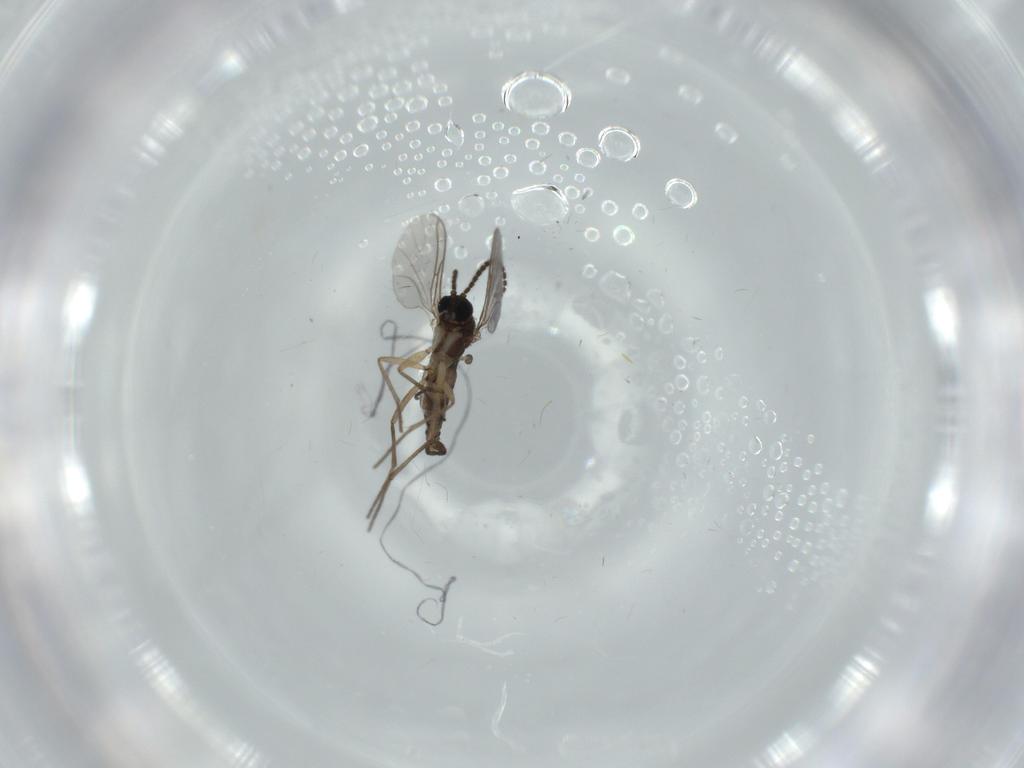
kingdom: Animalia
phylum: Arthropoda
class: Insecta
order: Diptera
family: Sciaridae
